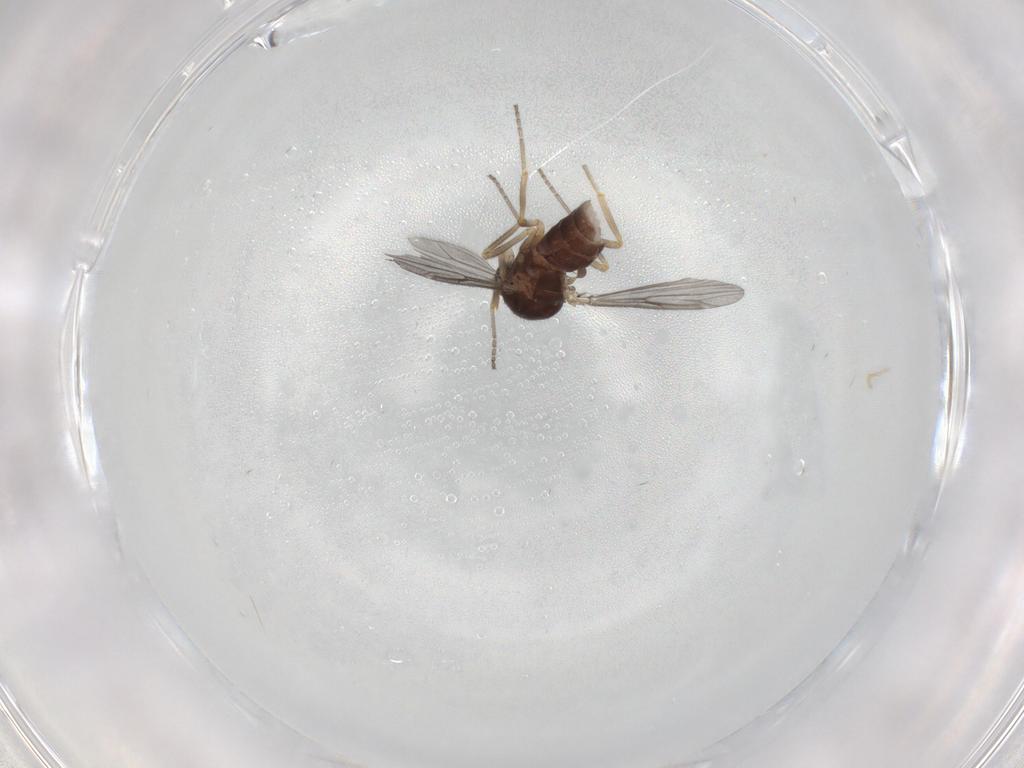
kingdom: Animalia
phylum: Arthropoda
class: Insecta
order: Diptera
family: Ceratopogonidae
